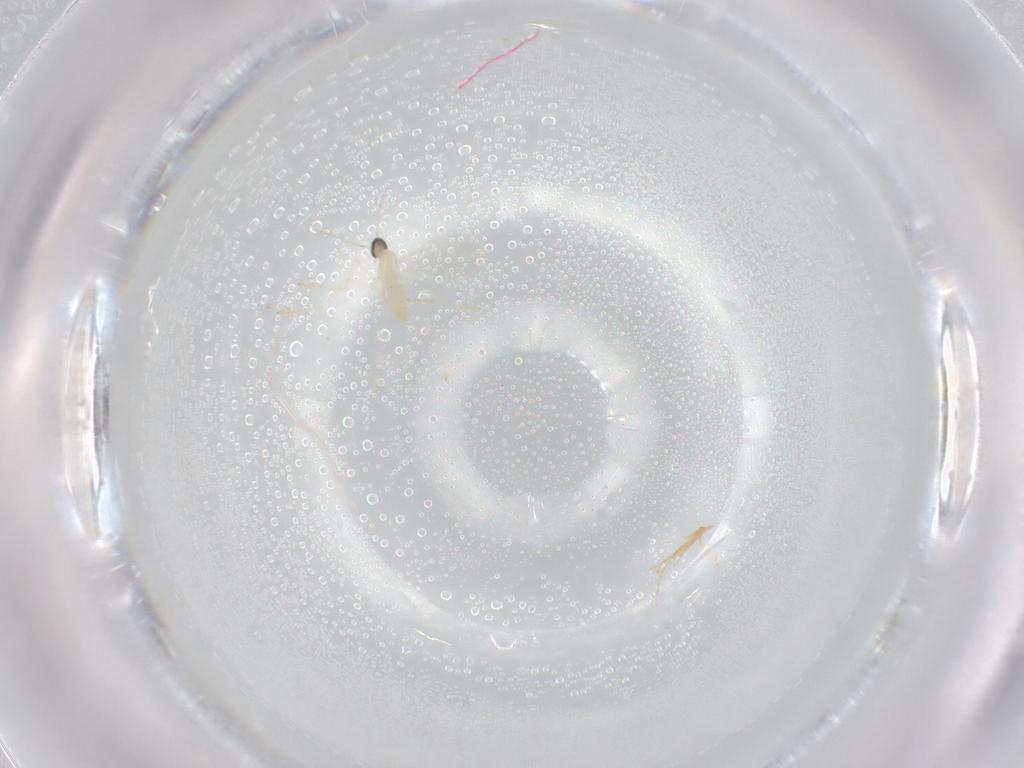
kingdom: Animalia
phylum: Arthropoda
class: Insecta
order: Diptera
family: Cecidomyiidae
